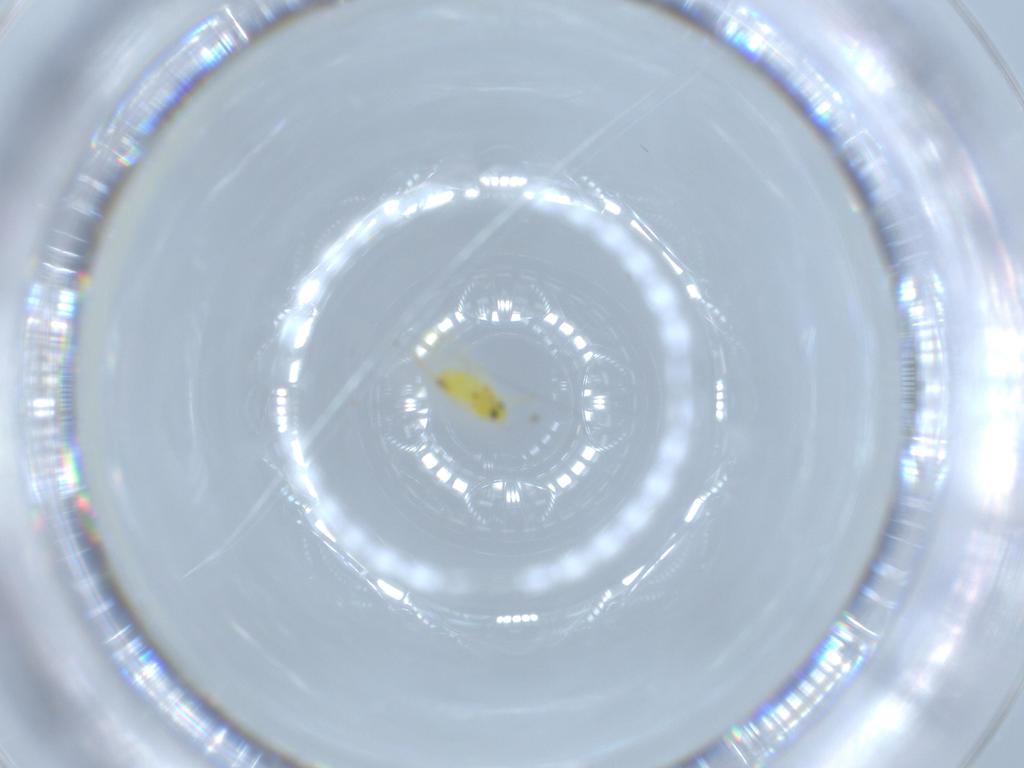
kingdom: Animalia
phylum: Arthropoda
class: Insecta
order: Hemiptera
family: Aleyrodidae
